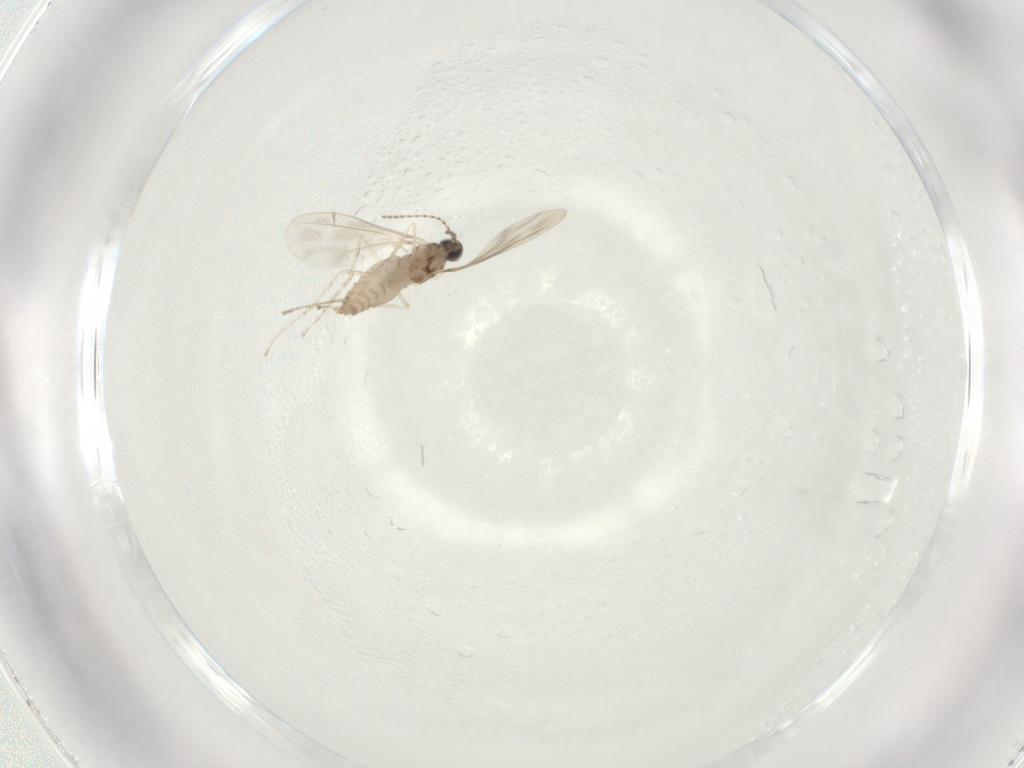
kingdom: Animalia
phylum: Arthropoda
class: Insecta
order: Diptera
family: Cecidomyiidae
